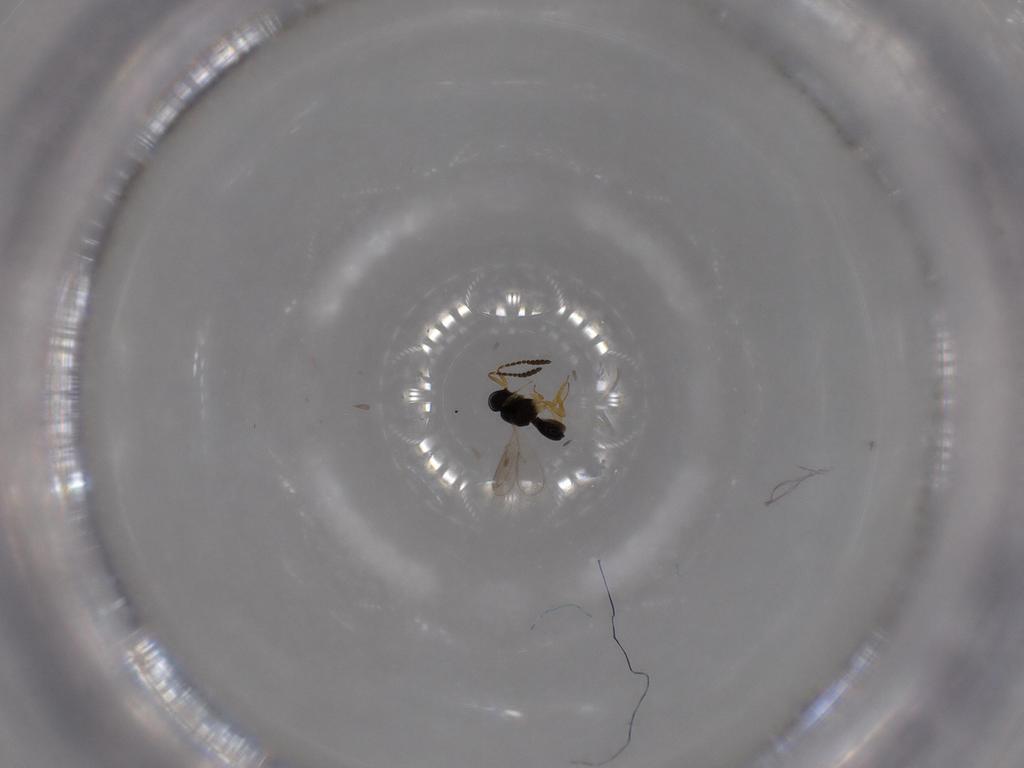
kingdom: Animalia
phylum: Arthropoda
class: Insecta
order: Hymenoptera
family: Scelionidae
